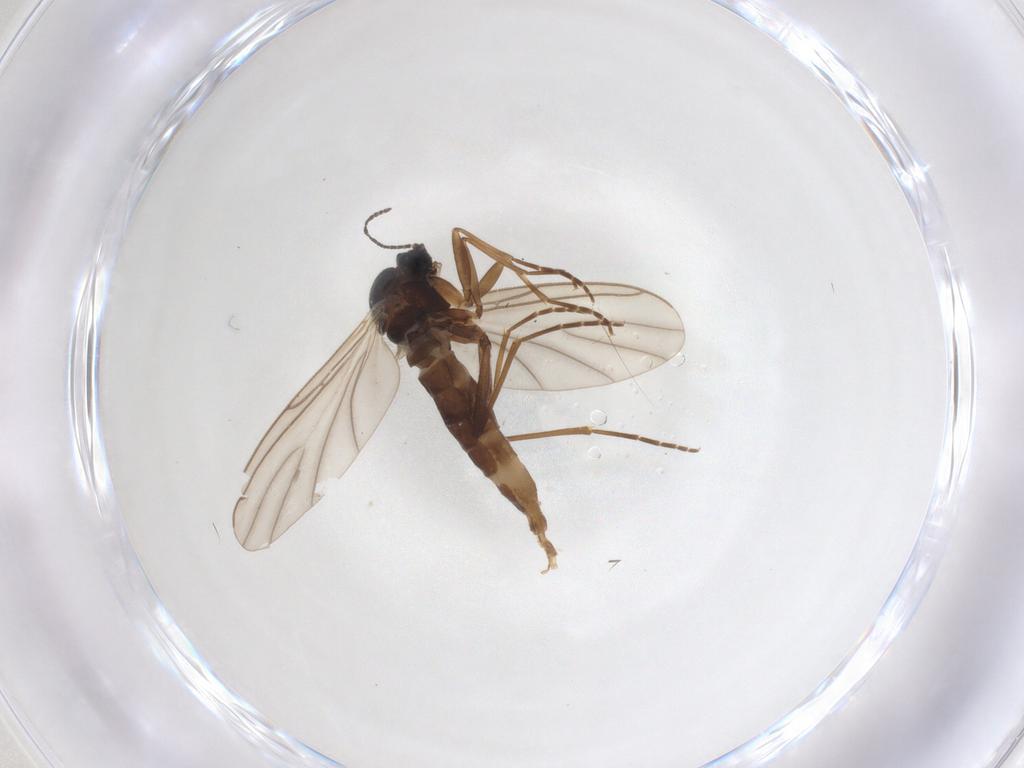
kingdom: Animalia
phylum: Arthropoda
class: Insecta
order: Diptera
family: Sciaridae
